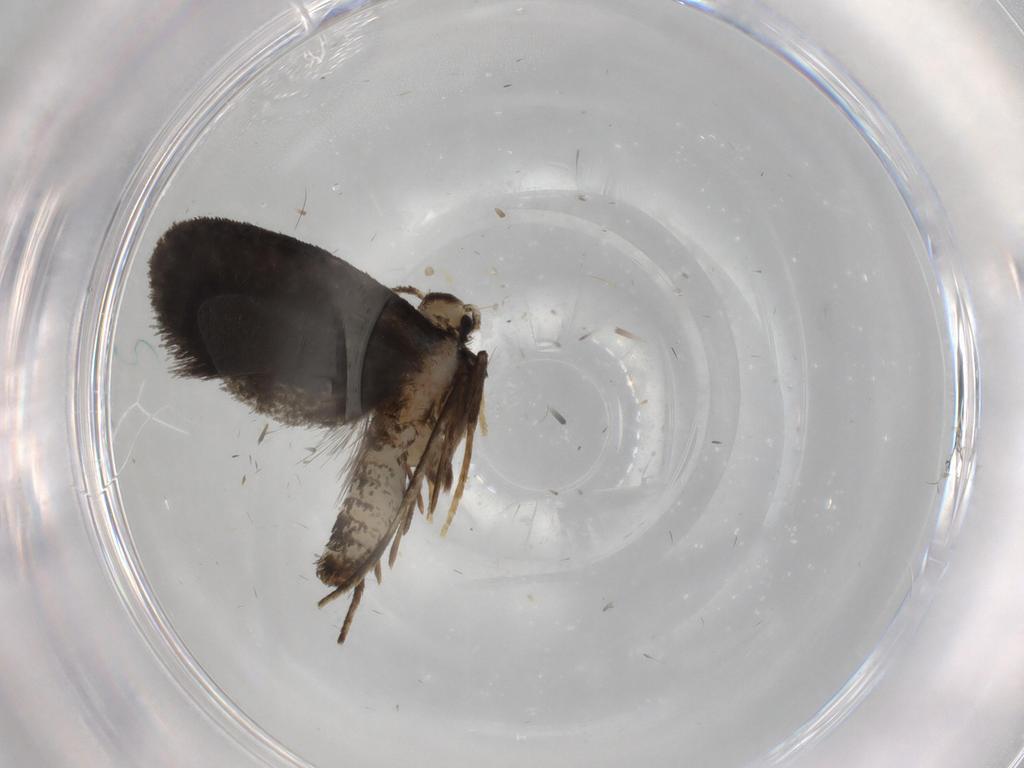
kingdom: Animalia
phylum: Arthropoda
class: Insecta
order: Lepidoptera
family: Psychidae
